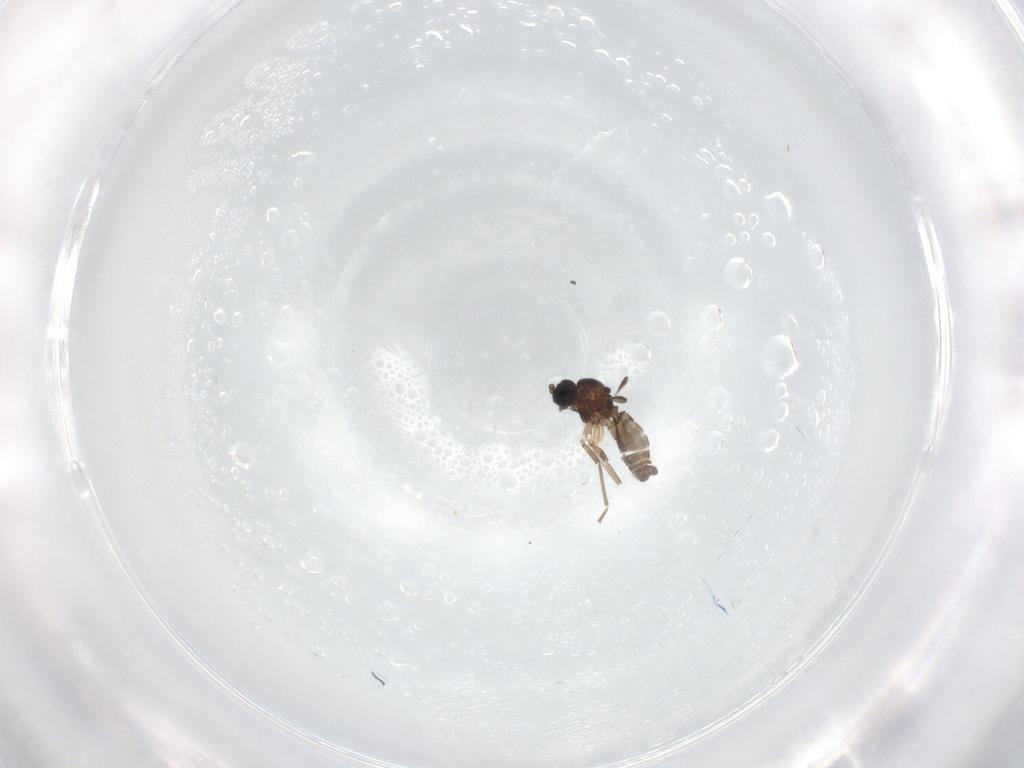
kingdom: Animalia
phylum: Arthropoda
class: Insecta
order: Diptera
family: Ceratopogonidae
